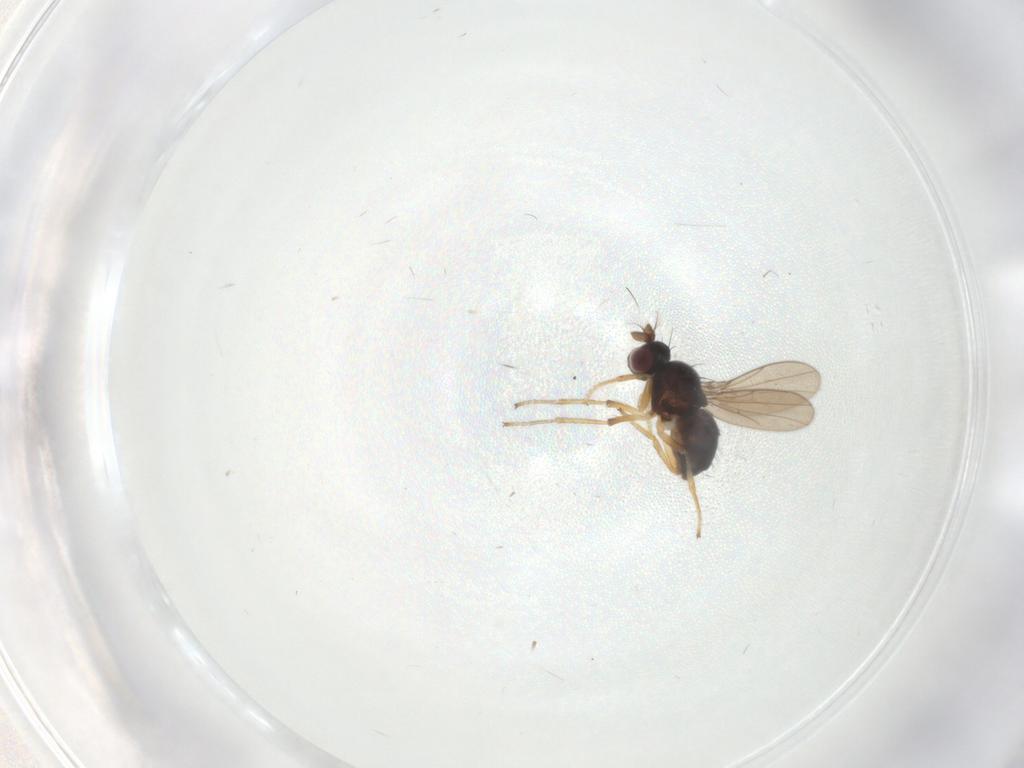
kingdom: Animalia
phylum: Arthropoda
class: Insecta
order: Diptera
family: Ephydridae
